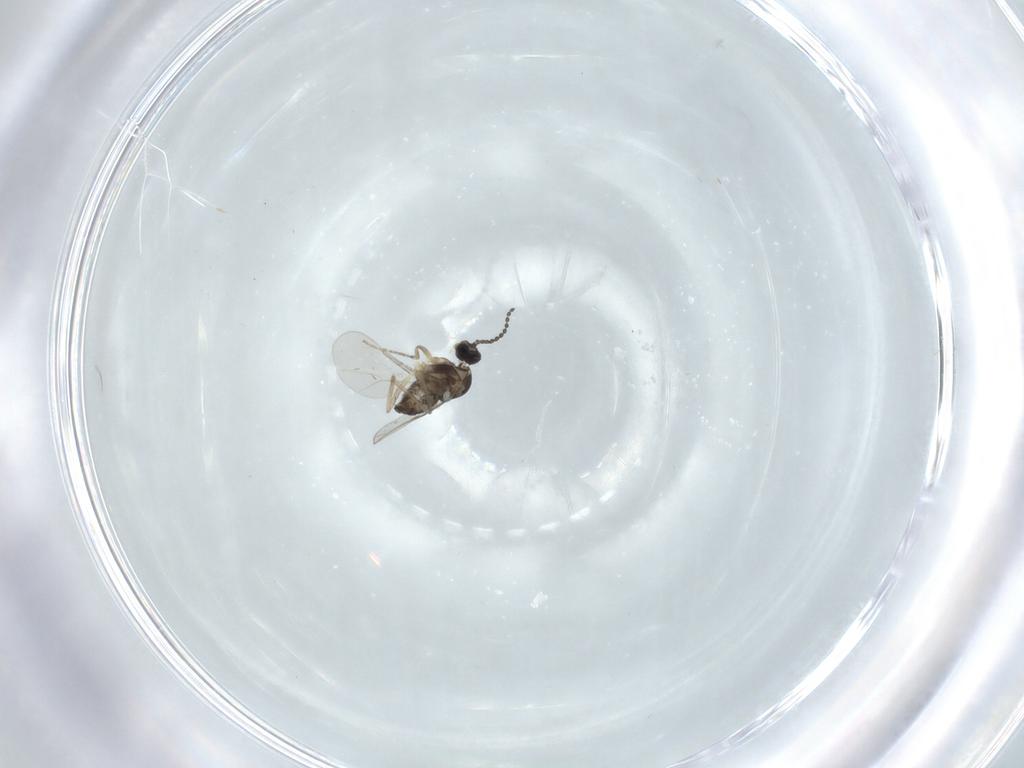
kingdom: Animalia
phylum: Arthropoda
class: Insecta
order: Diptera
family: Cecidomyiidae
